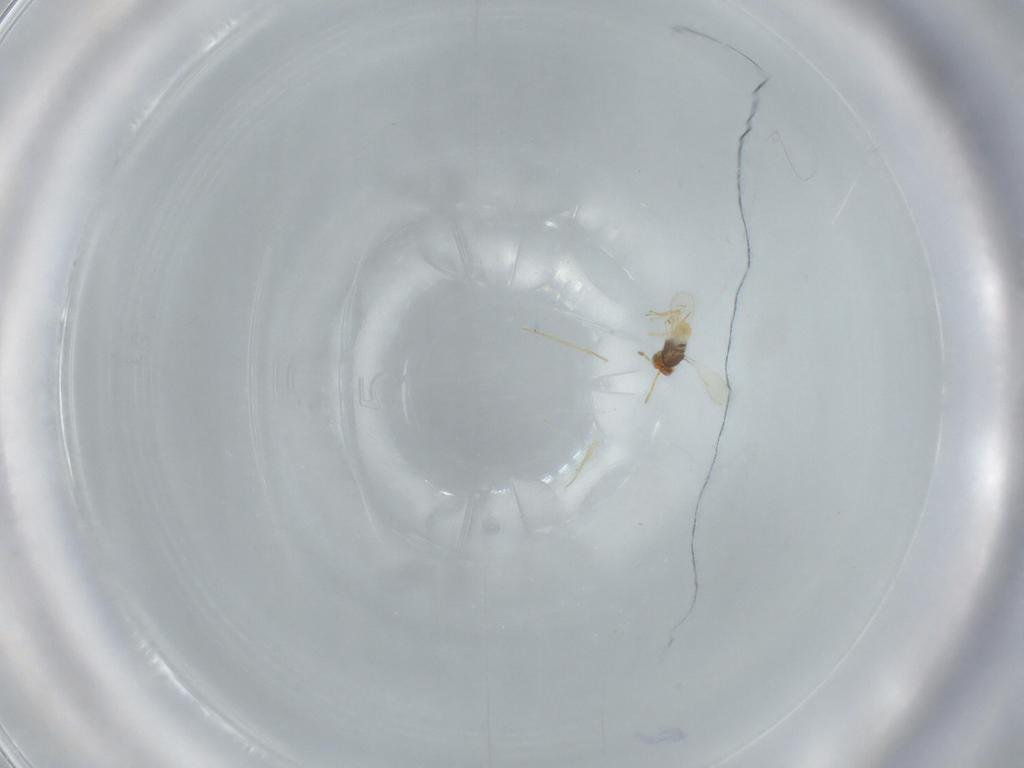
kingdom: Animalia
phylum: Arthropoda
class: Insecta
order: Hymenoptera
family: Aphelinidae
